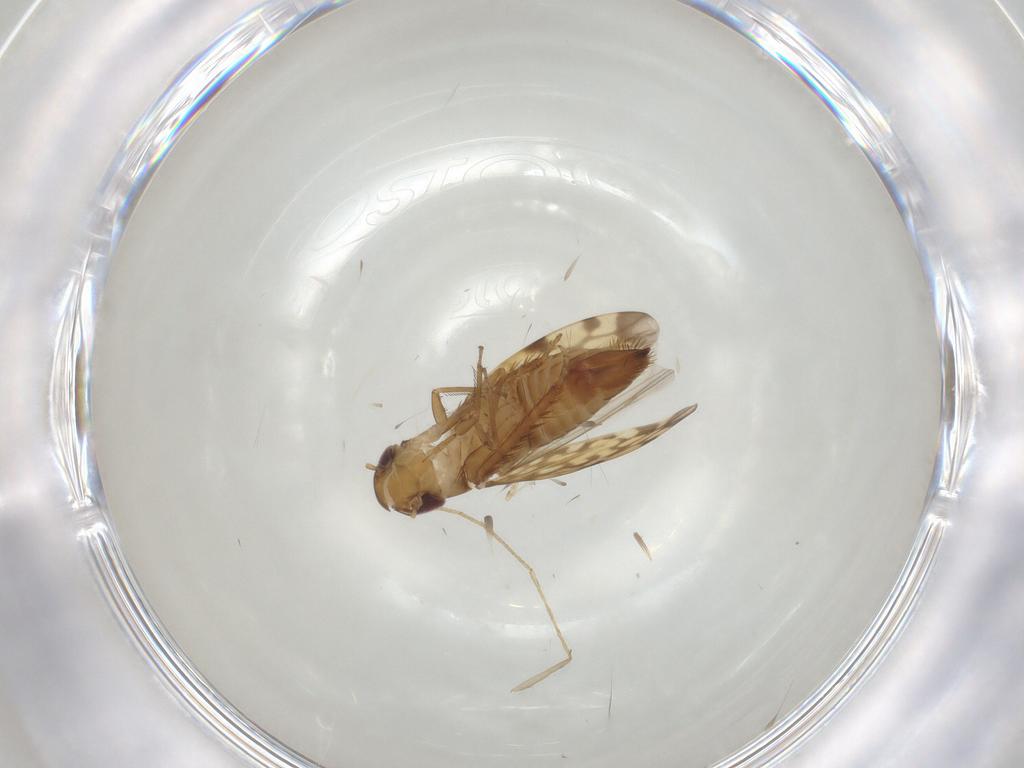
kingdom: Animalia
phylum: Arthropoda
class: Insecta
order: Hemiptera
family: Cicadellidae
